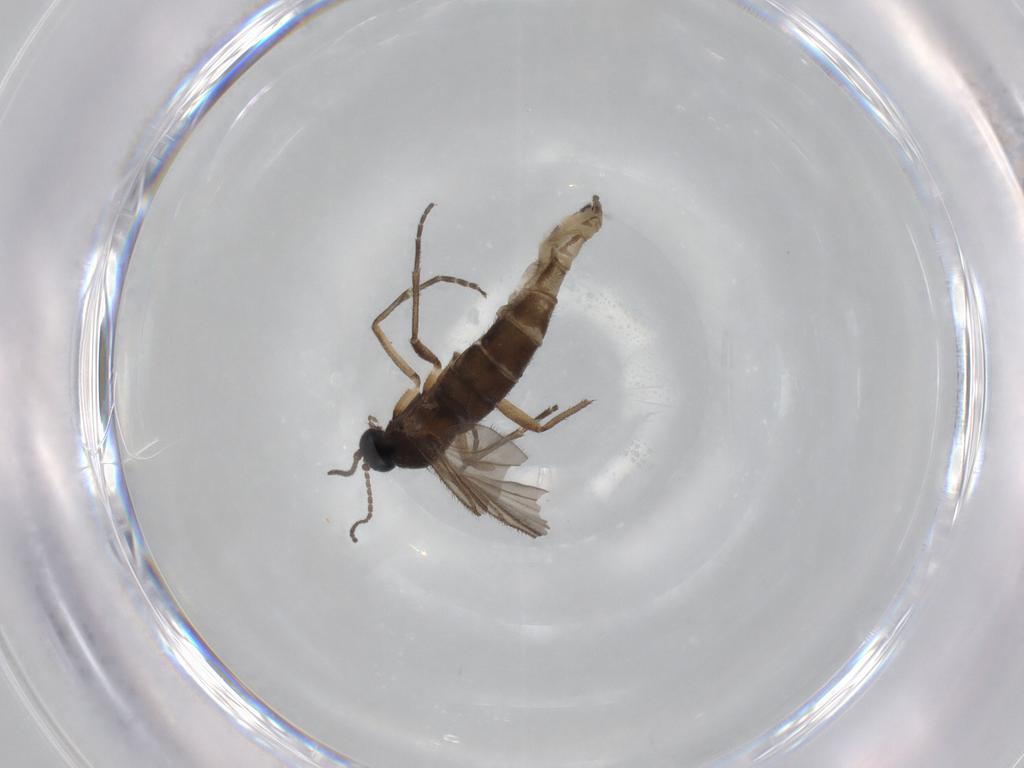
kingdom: Animalia
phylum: Arthropoda
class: Insecta
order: Diptera
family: Sciaridae
